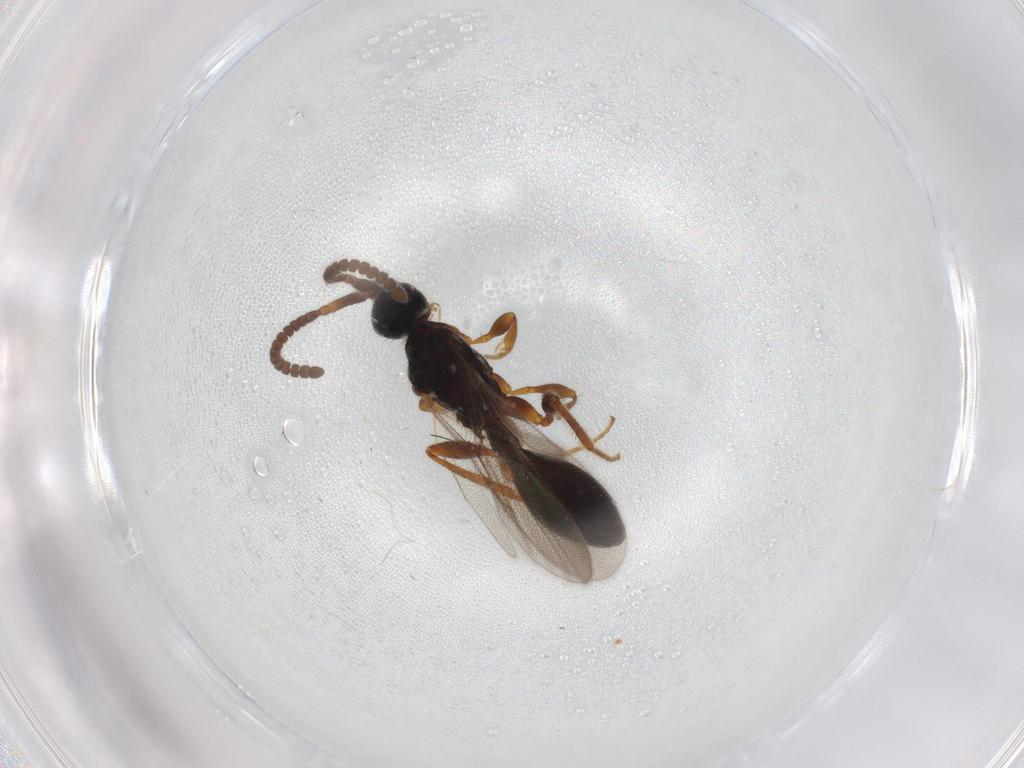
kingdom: Animalia
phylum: Arthropoda
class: Insecta
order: Hymenoptera
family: Diapriidae
